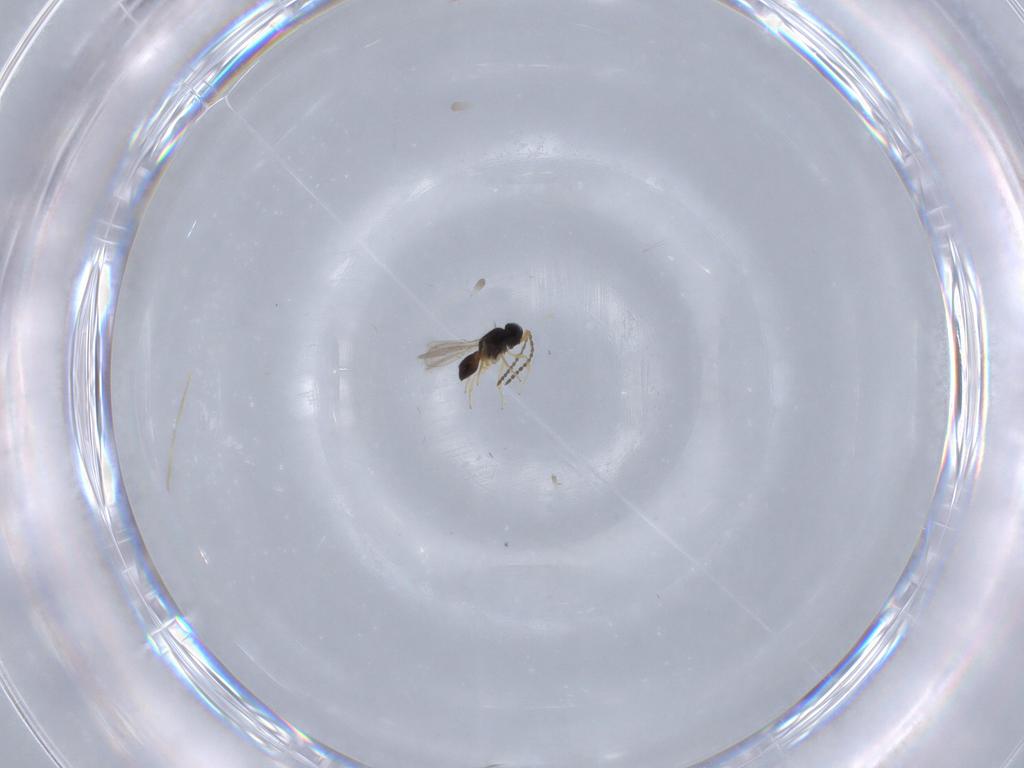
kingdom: Animalia
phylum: Arthropoda
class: Insecta
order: Hymenoptera
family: Scelionidae
